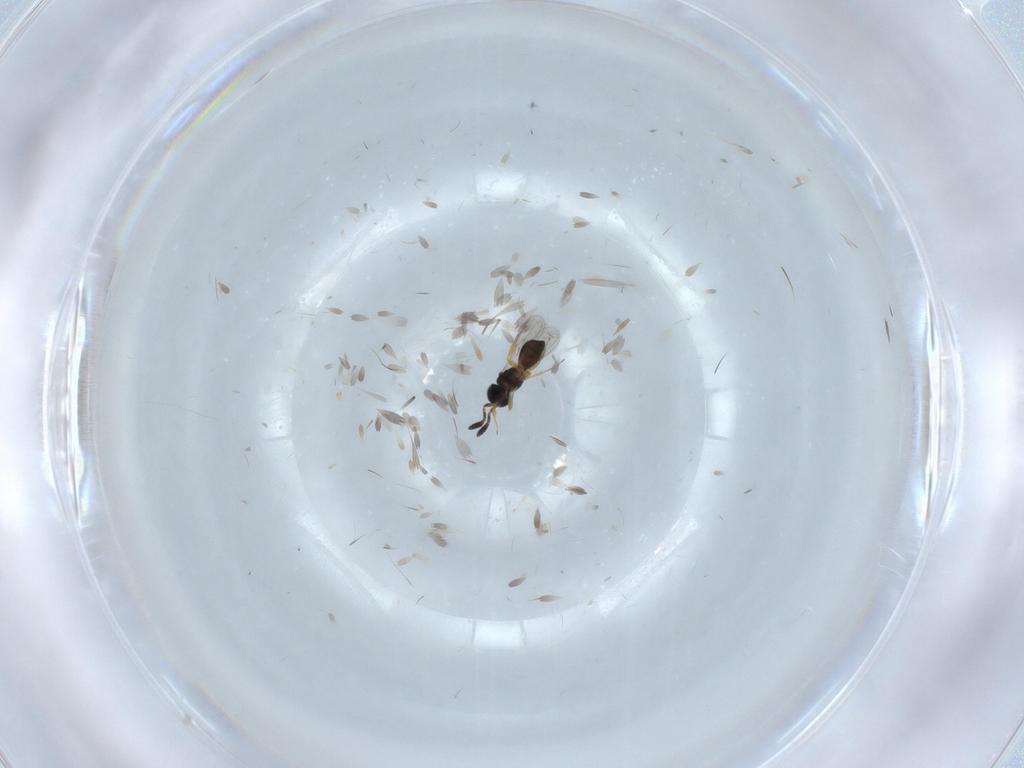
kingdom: Animalia
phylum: Arthropoda
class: Insecta
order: Hymenoptera
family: Scelionidae
